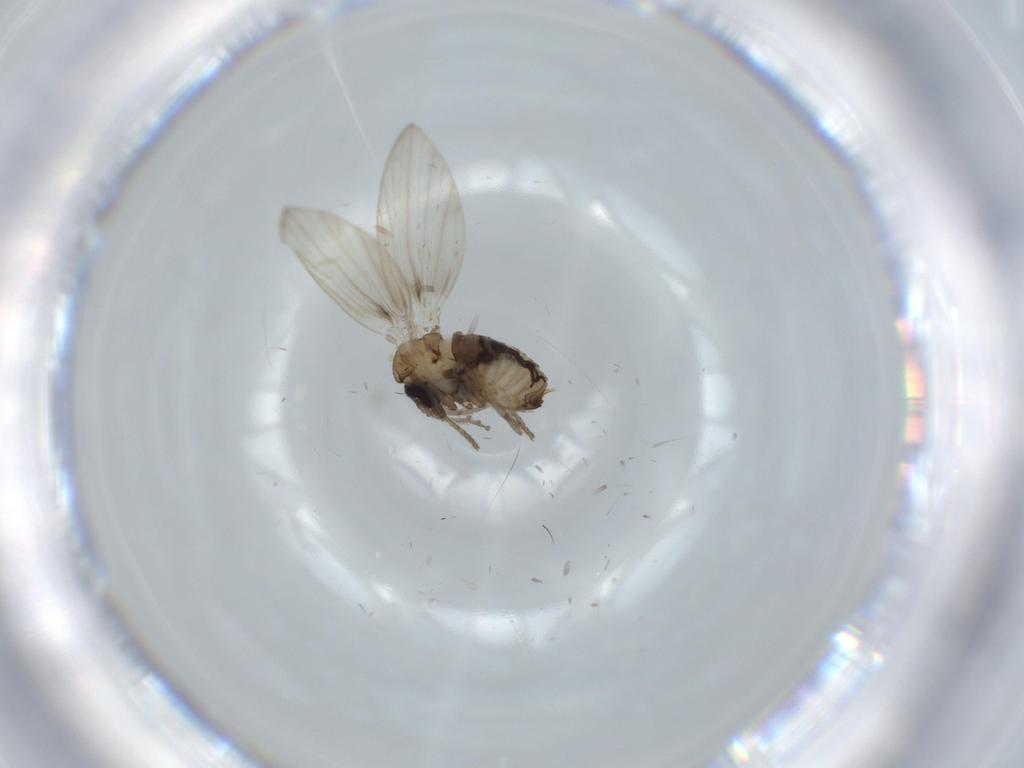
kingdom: Animalia
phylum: Arthropoda
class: Insecta
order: Diptera
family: Psychodidae
